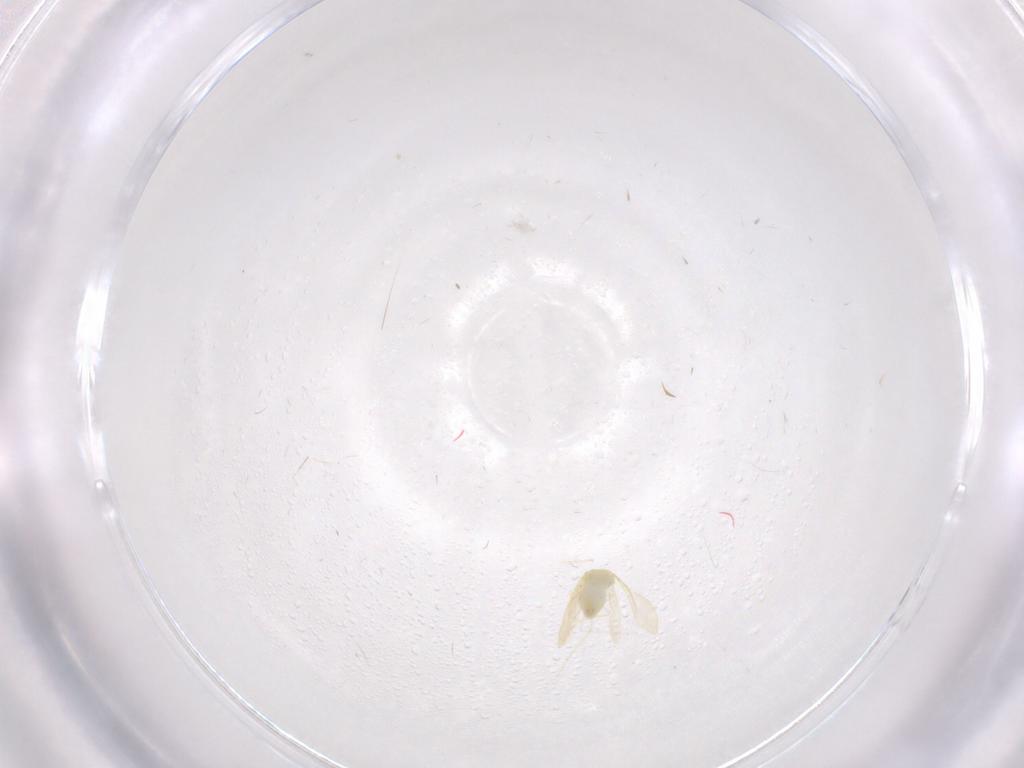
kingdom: Animalia
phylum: Arthropoda
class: Insecta
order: Hemiptera
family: Aleyrodidae
